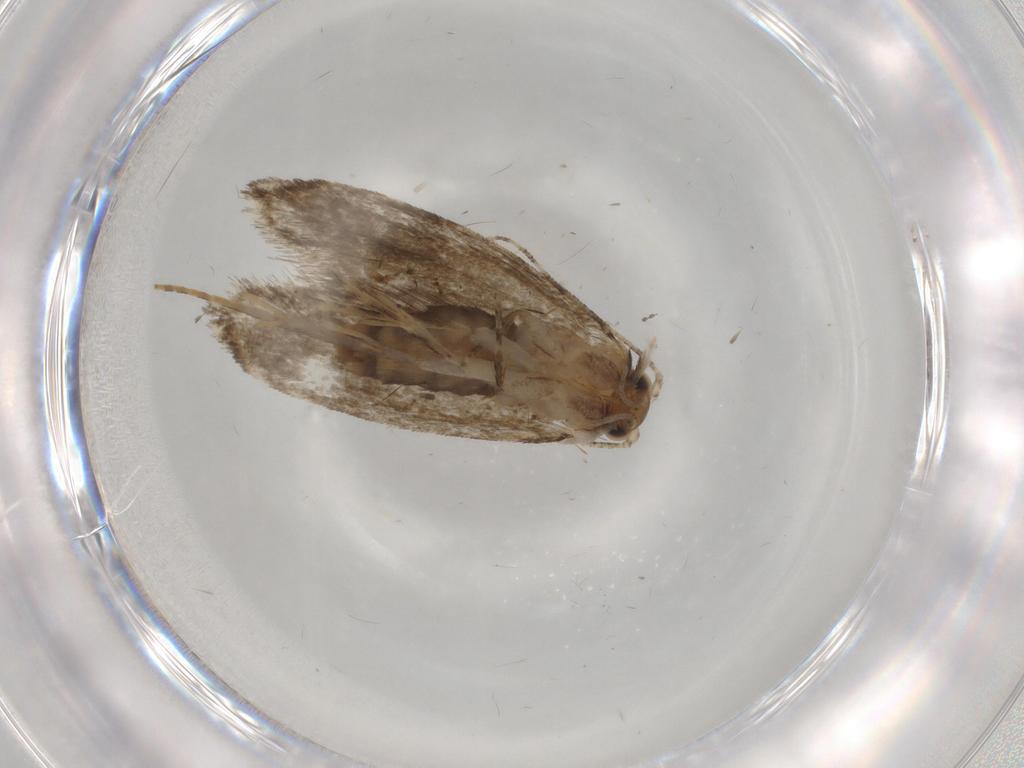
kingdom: Animalia
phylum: Arthropoda
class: Insecta
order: Lepidoptera
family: Tineidae
